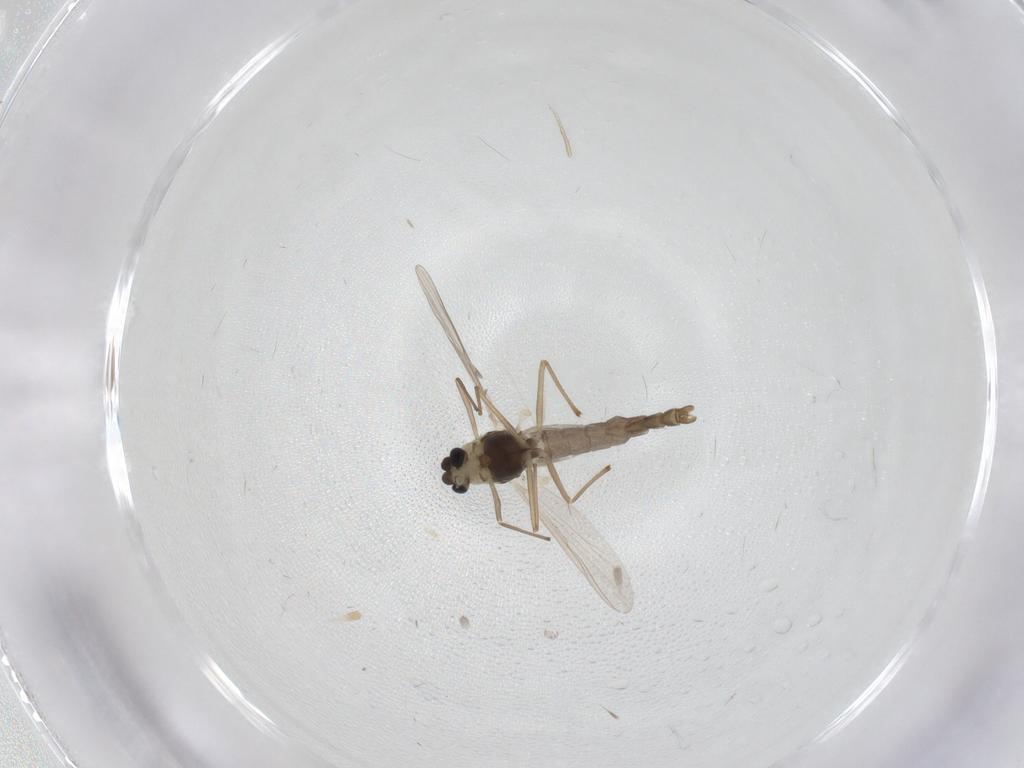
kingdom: Animalia
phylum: Arthropoda
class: Insecta
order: Diptera
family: Chironomidae
